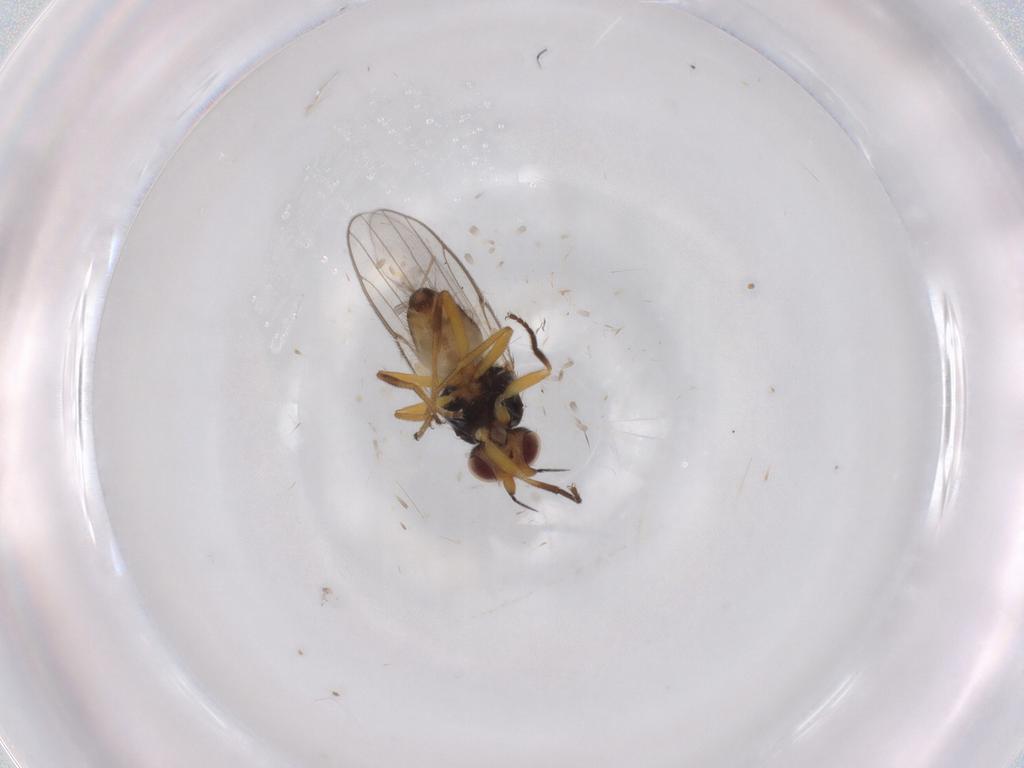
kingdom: Animalia
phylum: Arthropoda
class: Insecta
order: Diptera
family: Chloropidae
